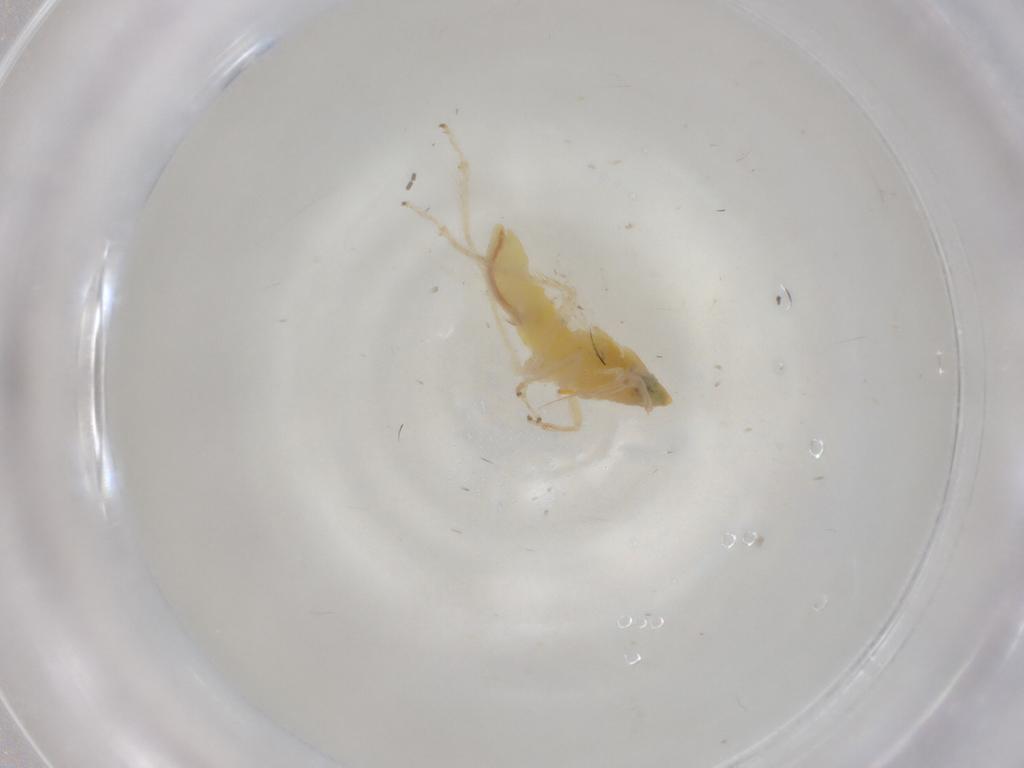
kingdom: Animalia
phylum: Arthropoda
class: Insecta
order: Hemiptera
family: Cicadellidae
